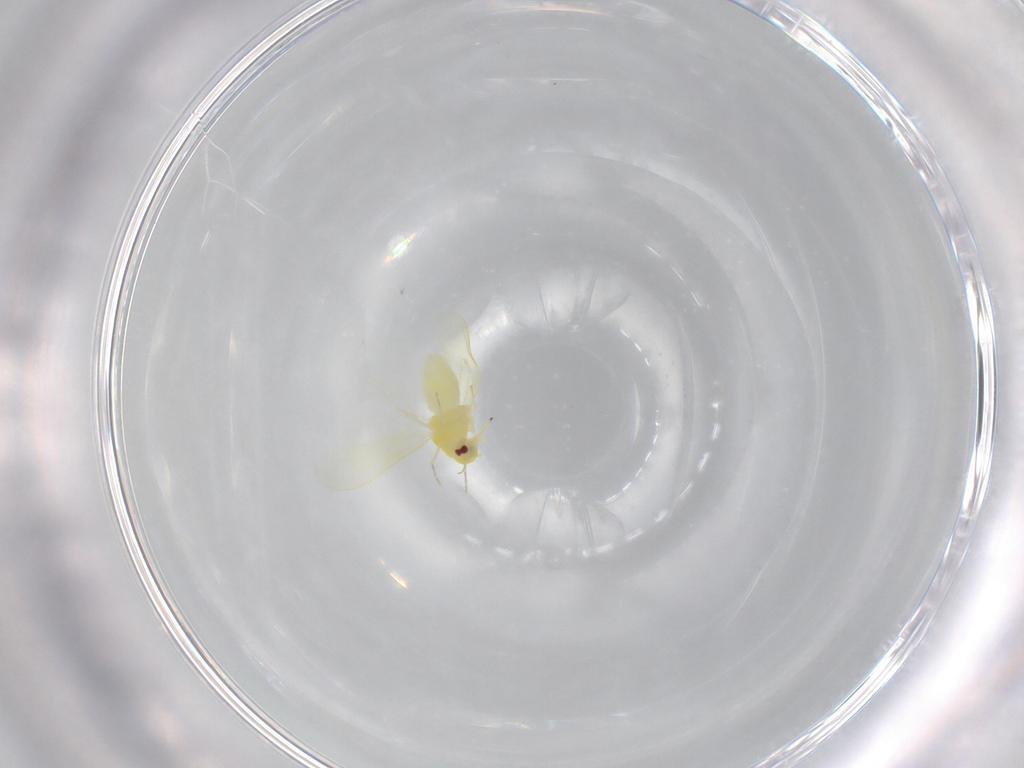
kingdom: Animalia
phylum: Arthropoda
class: Insecta
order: Hemiptera
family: Aleyrodidae
